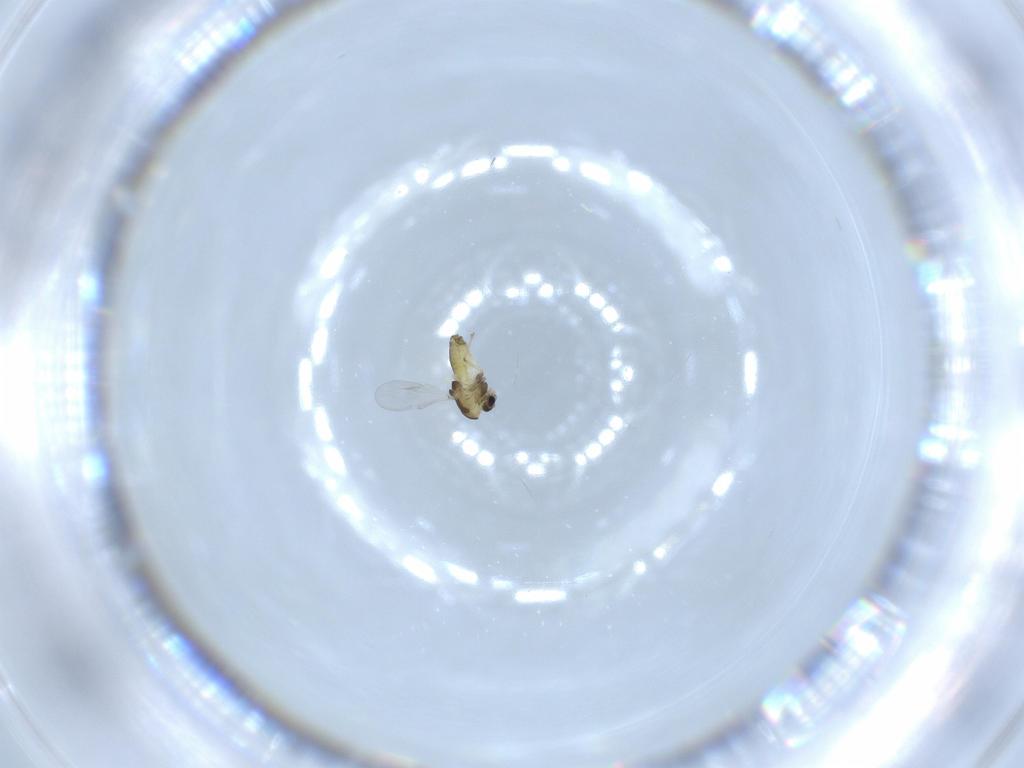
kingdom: Animalia
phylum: Arthropoda
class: Insecta
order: Diptera
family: Chironomidae
